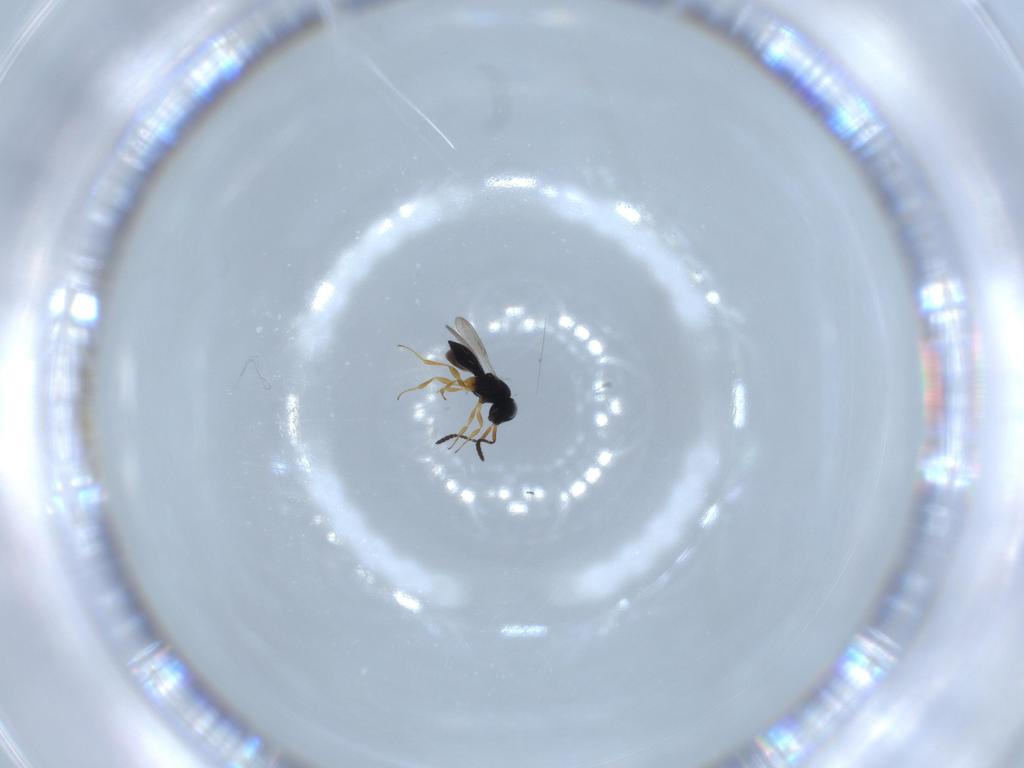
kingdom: Animalia
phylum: Arthropoda
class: Insecta
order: Hymenoptera
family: Scelionidae
